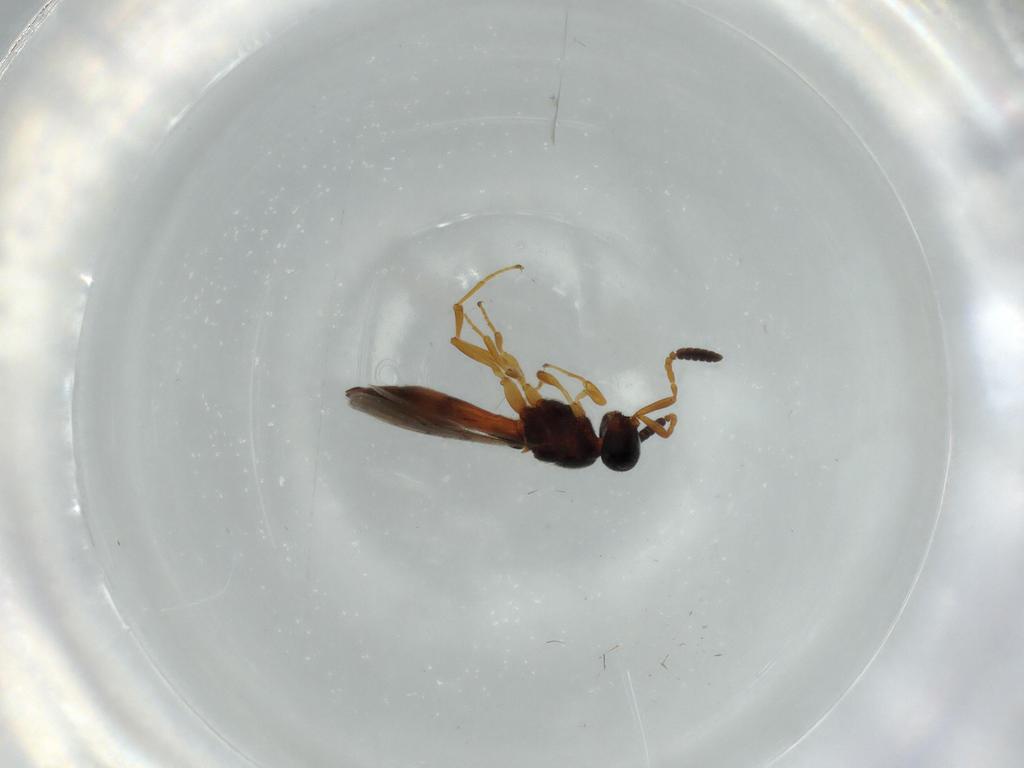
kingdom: Animalia
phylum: Arthropoda
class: Insecta
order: Hymenoptera
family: Scelionidae
